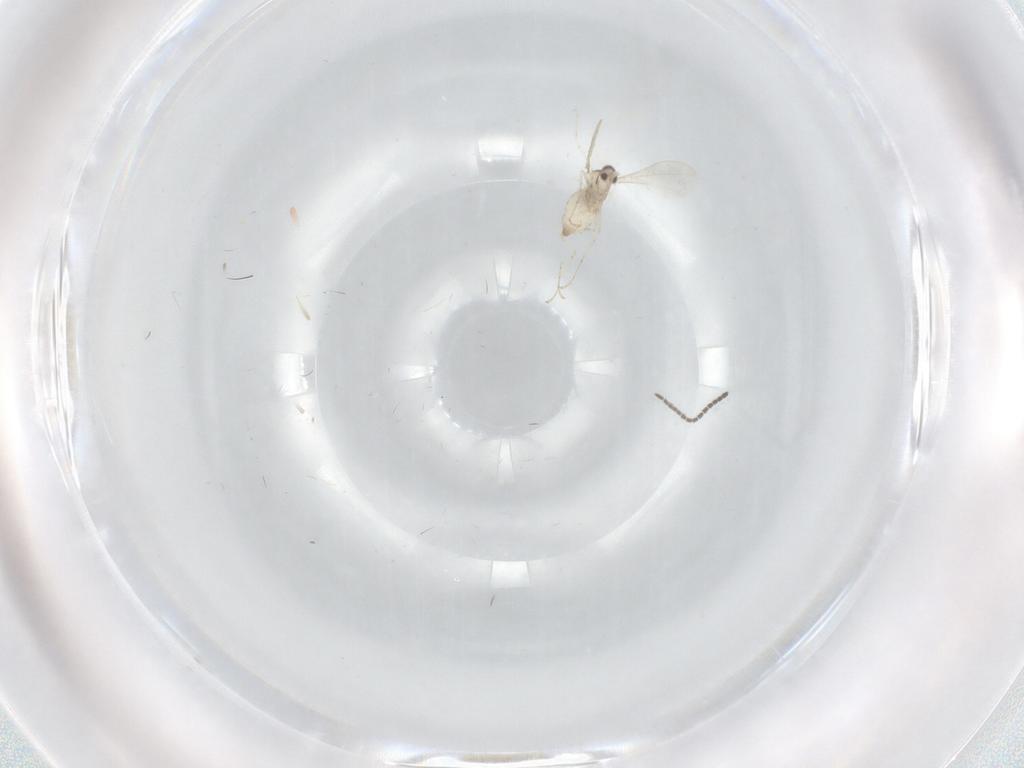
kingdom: Animalia
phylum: Arthropoda
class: Insecta
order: Diptera
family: Cecidomyiidae
